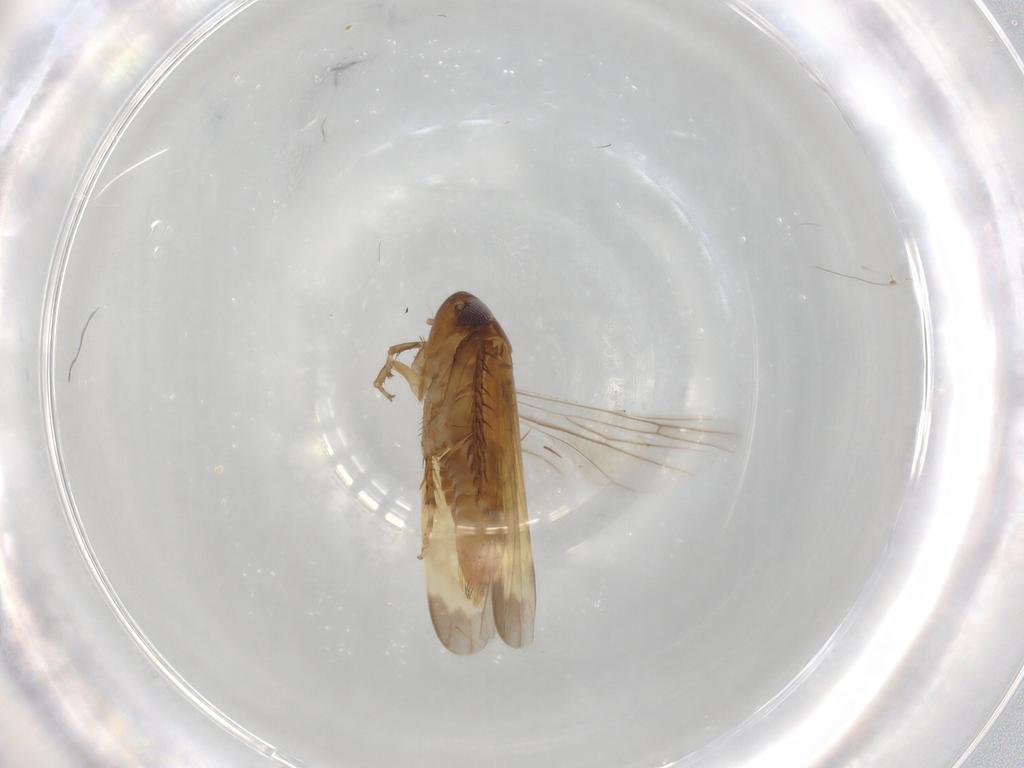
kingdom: Animalia
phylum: Arthropoda
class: Insecta
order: Hemiptera
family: Cicadellidae
